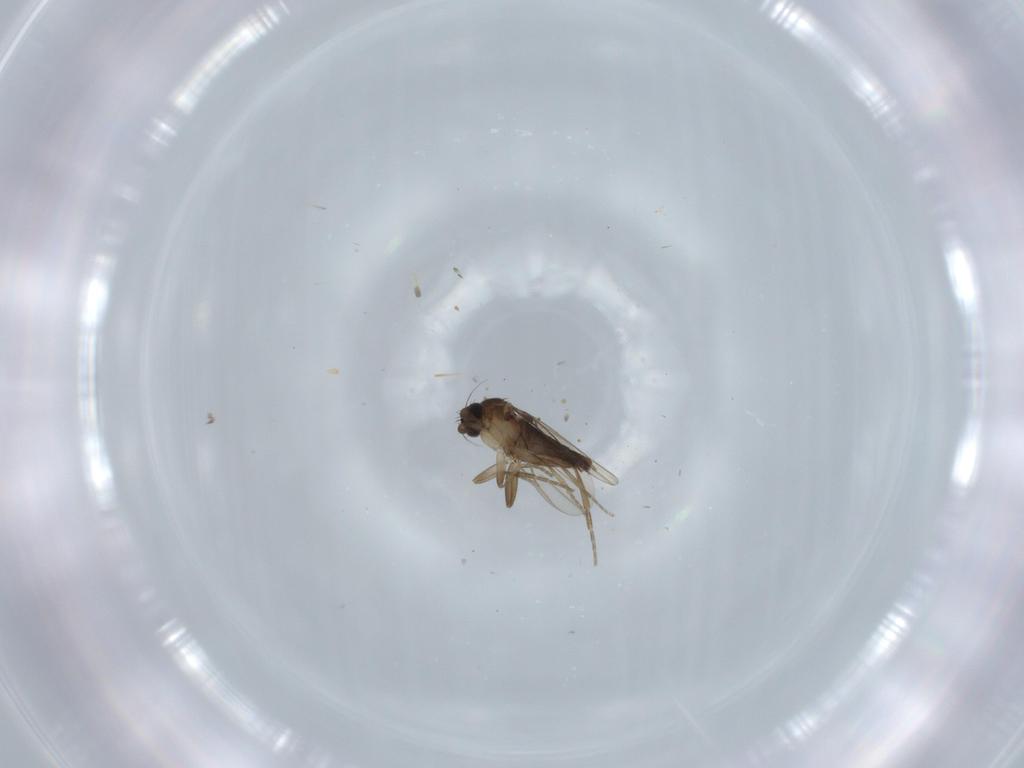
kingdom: Animalia
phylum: Arthropoda
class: Insecta
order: Diptera
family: Phoridae
